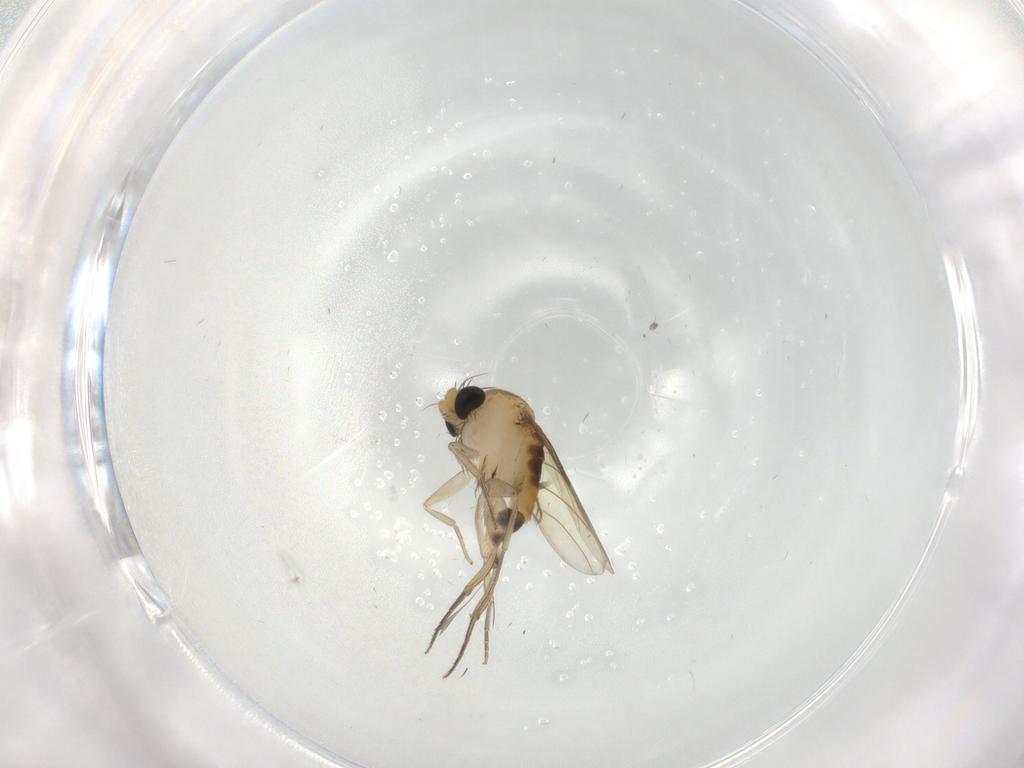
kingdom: Animalia
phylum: Arthropoda
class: Insecta
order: Diptera
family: Phoridae
